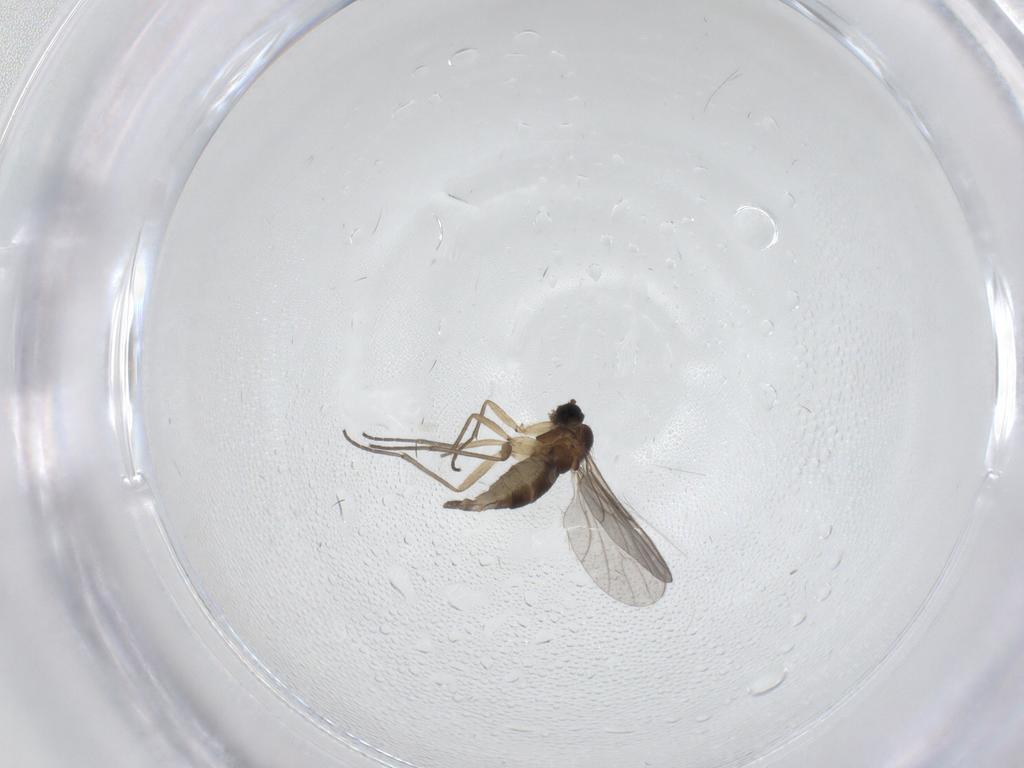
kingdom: Animalia
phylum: Arthropoda
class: Insecta
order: Diptera
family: Sciaridae
